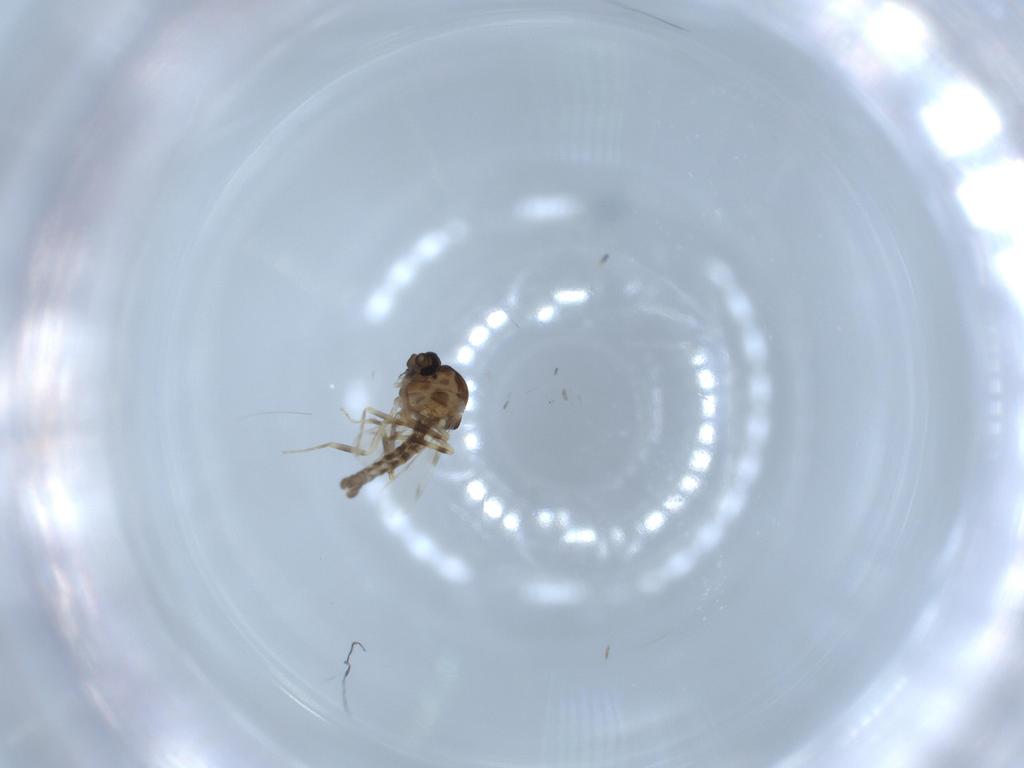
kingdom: Animalia
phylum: Arthropoda
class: Insecta
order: Diptera
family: Ceratopogonidae
